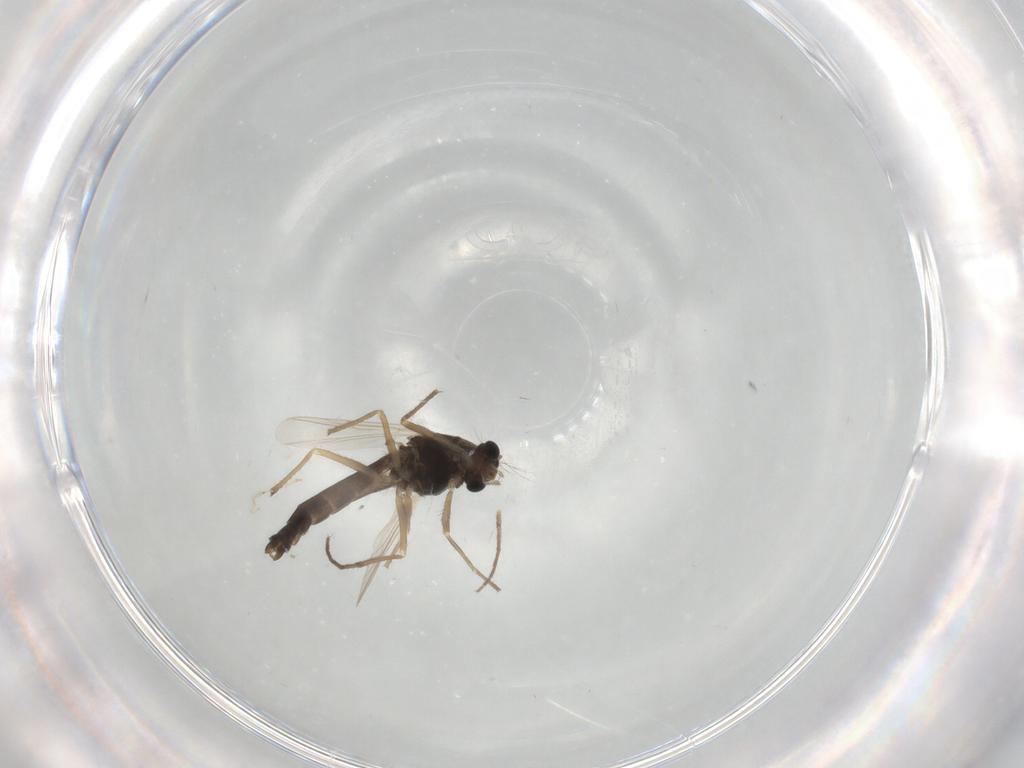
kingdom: Animalia
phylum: Arthropoda
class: Insecta
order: Diptera
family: Chironomidae
